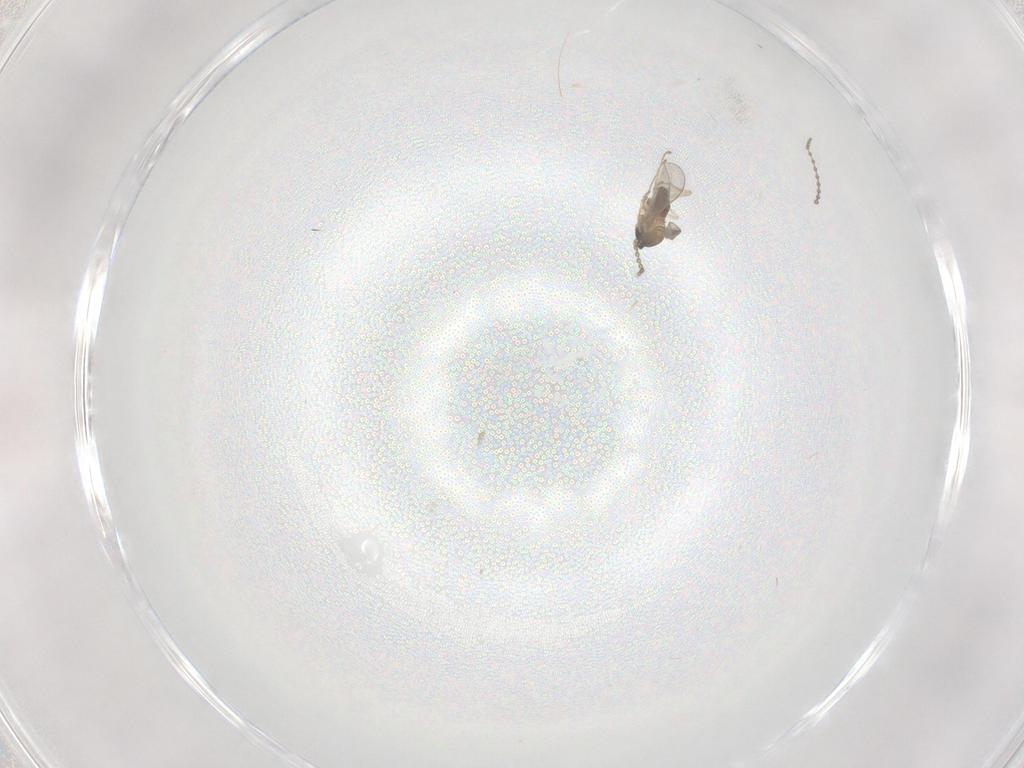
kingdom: Animalia
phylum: Arthropoda
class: Insecta
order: Diptera
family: Cecidomyiidae
